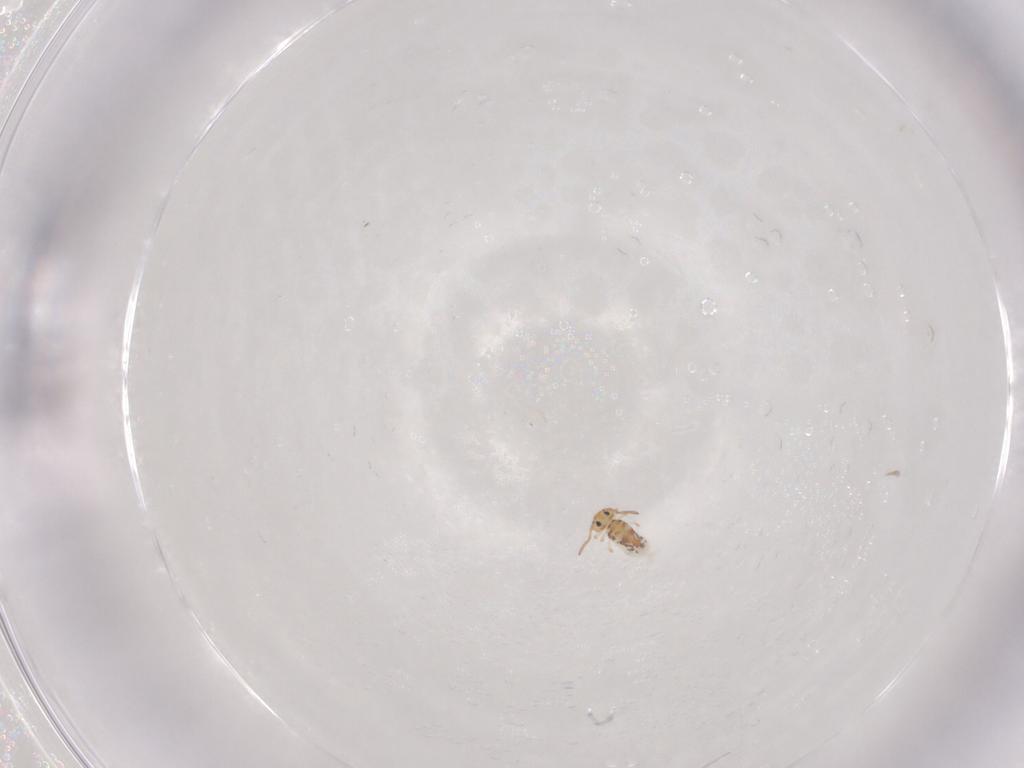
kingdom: Animalia
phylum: Arthropoda
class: Collembola
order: Symphypleona
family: Bourletiellidae
